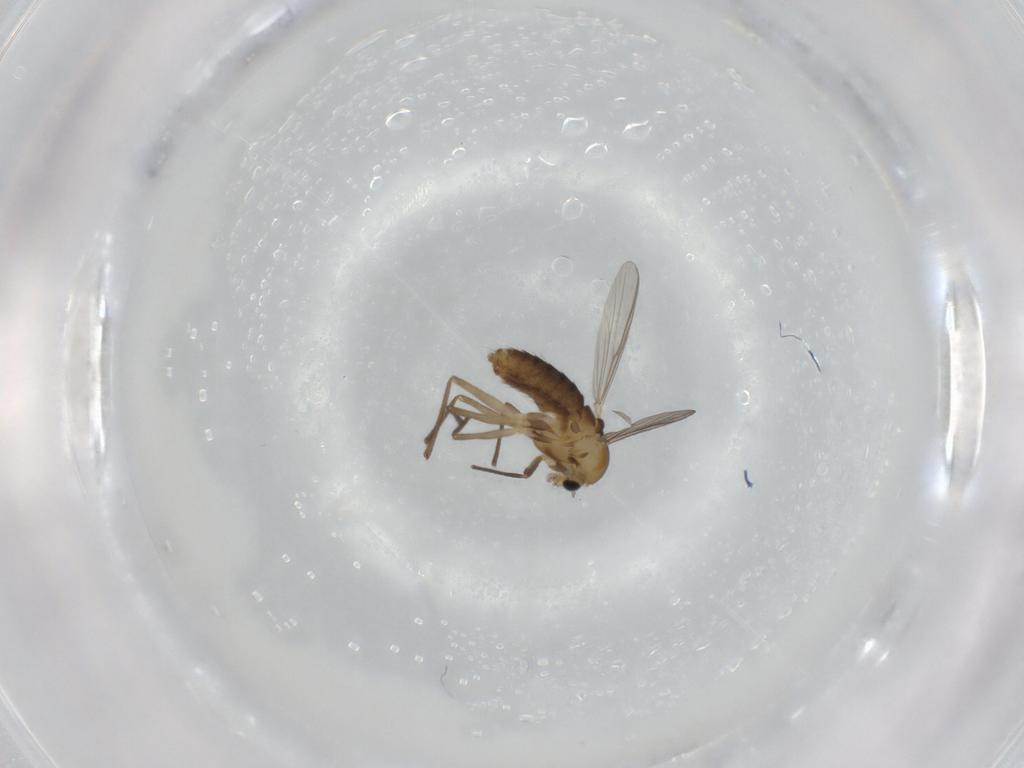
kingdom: Animalia
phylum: Arthropoda
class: Insecta
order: Diptera
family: Chironomidae
